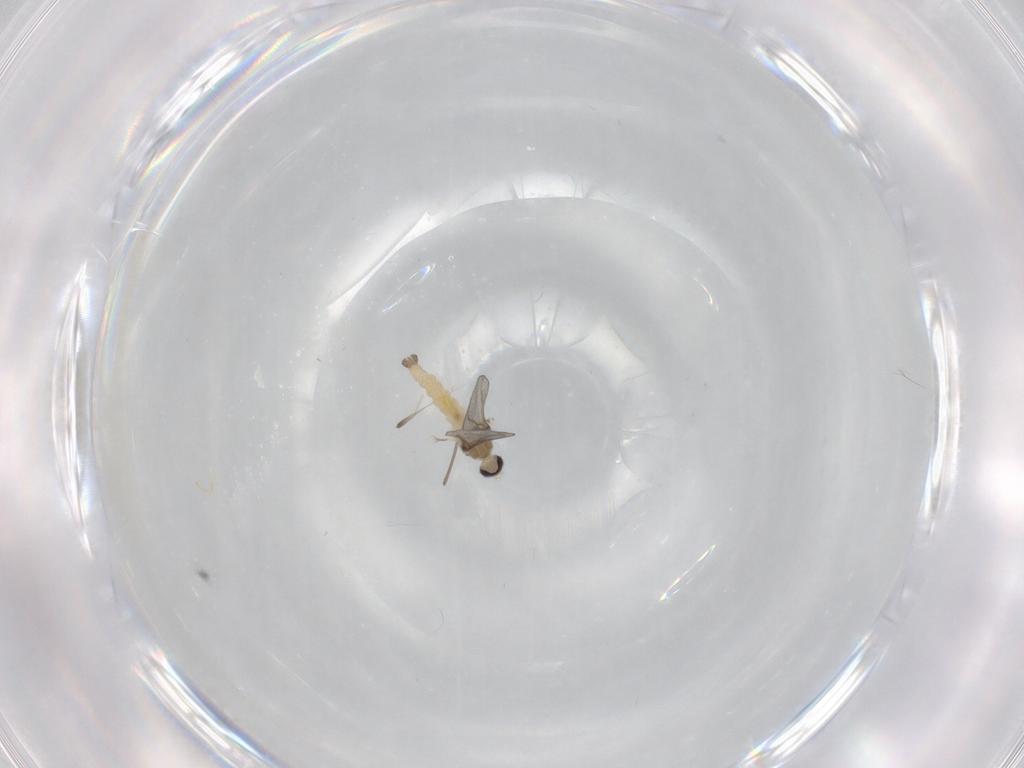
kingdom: Animalia
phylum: Arthropoda
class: Insecta
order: Diptera
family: Cecidomyiidae
